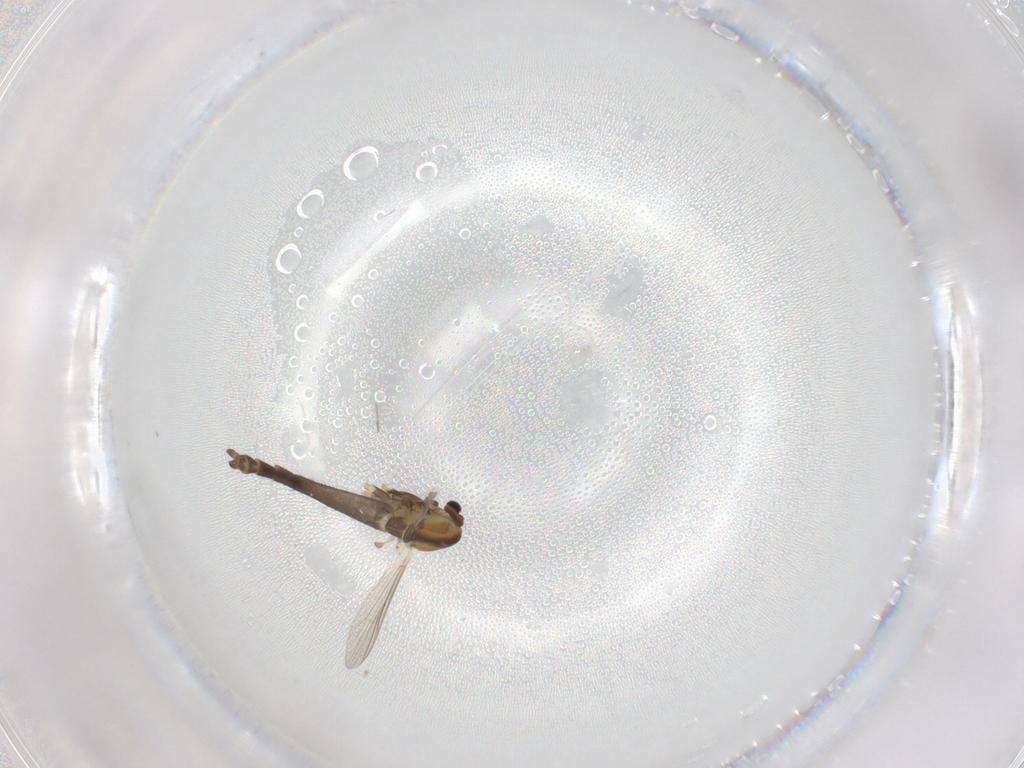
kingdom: Animalia
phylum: Arthropoda
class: Insecta
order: Diptera
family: Chironomidae
